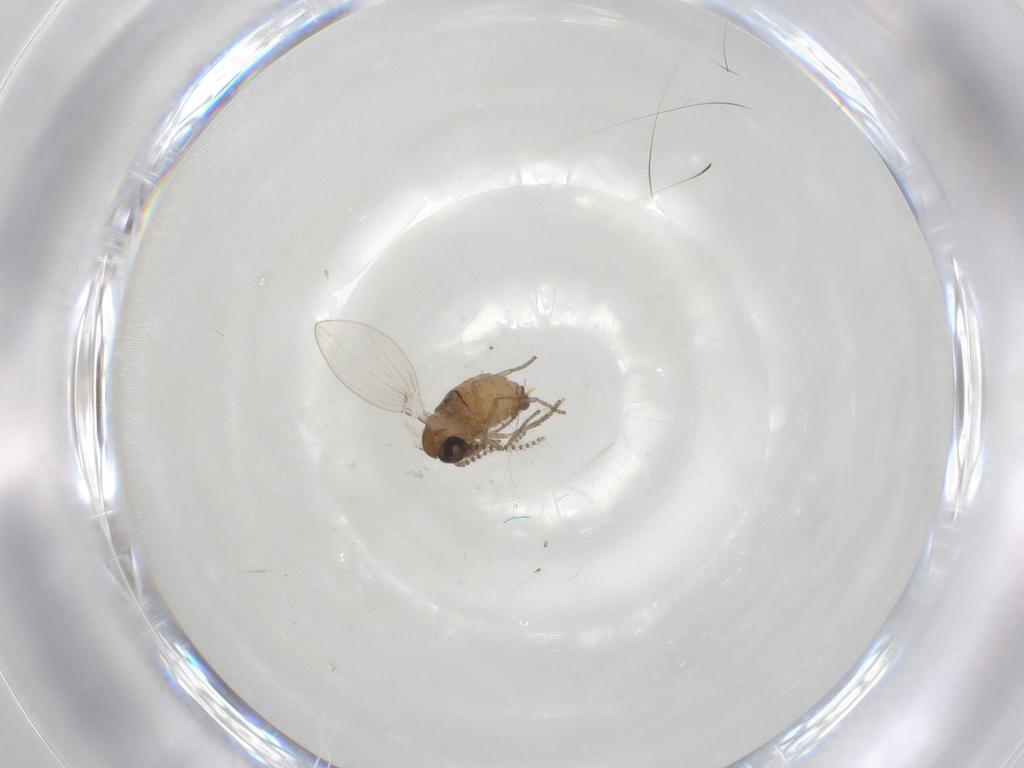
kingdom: Animalia
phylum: Arthropoda
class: Insecta
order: Diptera
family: Psychodidae
